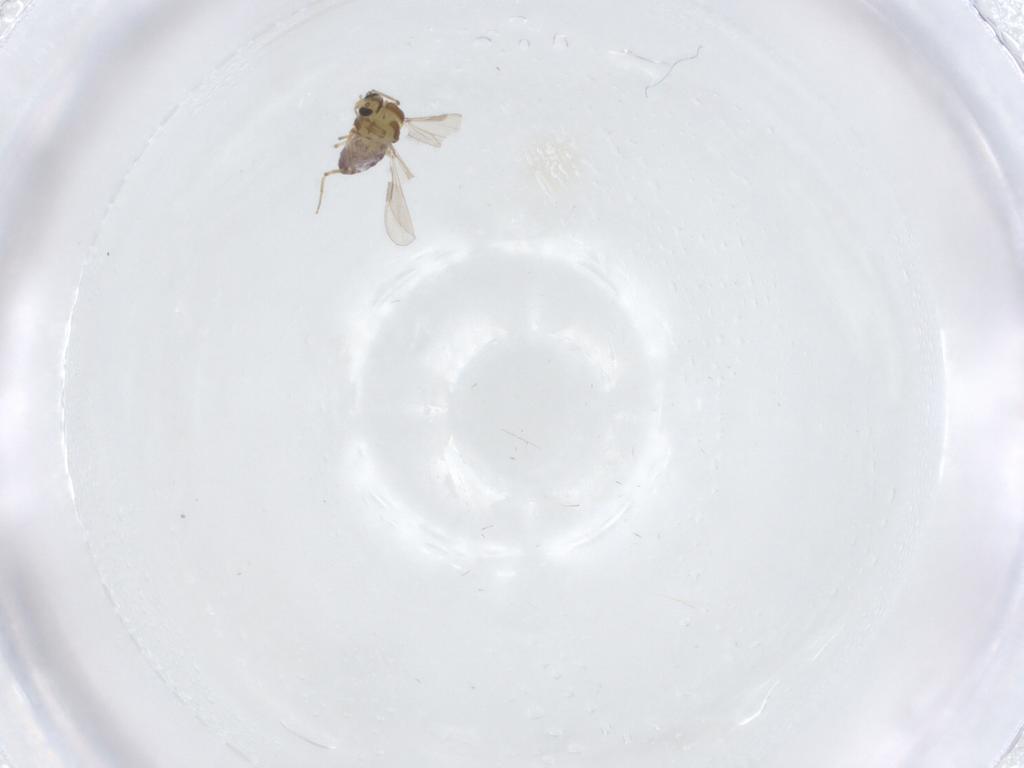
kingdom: Animalia
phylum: Arthropoda
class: Insecta
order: Diptera
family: Chironomidae
